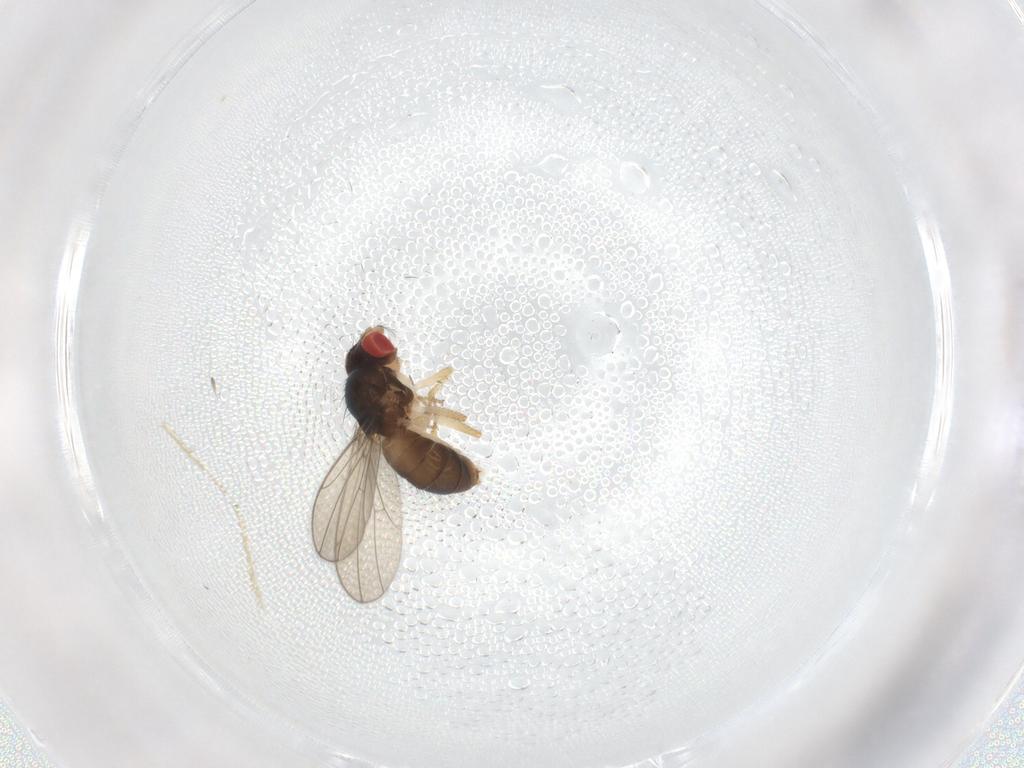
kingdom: Animalia
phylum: Arthropoda
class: Insecta
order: Diptera
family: Drosophilidae
